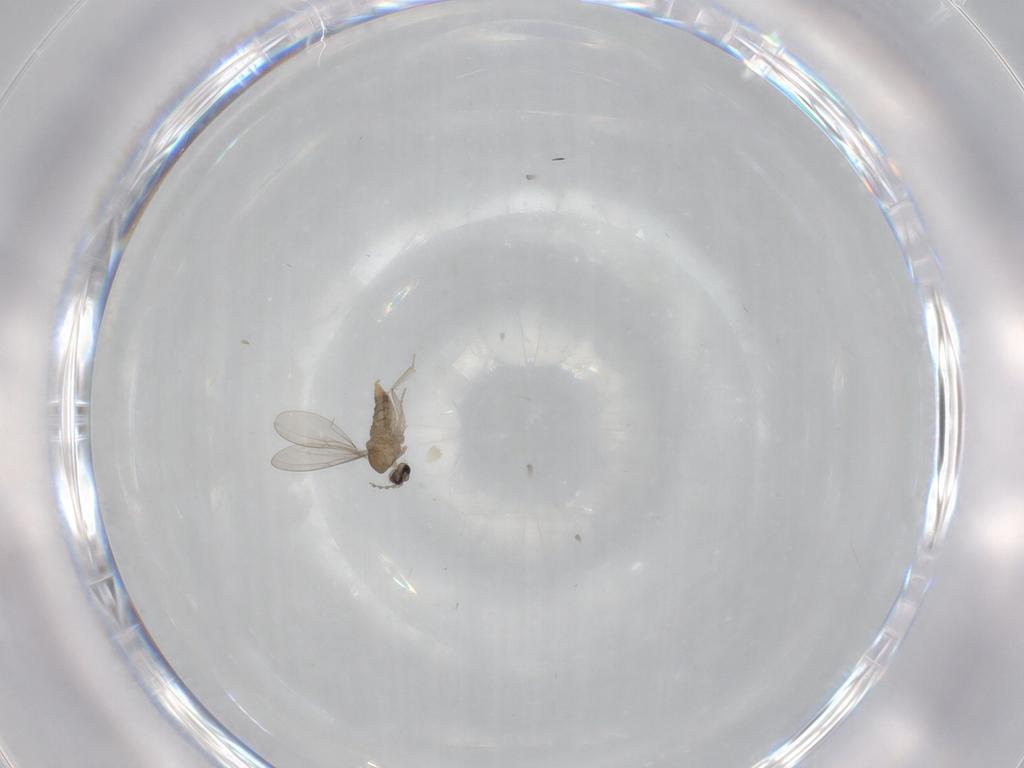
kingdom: Animalia
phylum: Arthropoda
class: Insecta
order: Diptera
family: Cecidomyiidae
